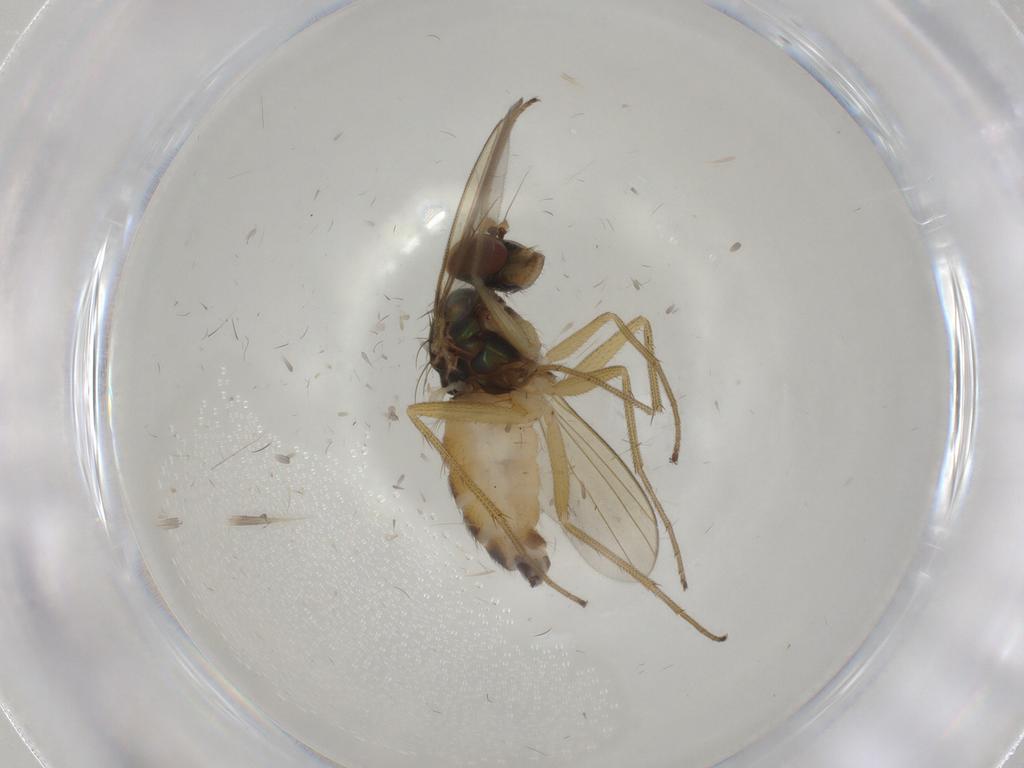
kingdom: Animalia
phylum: Arthropoda
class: Insecta
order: Diptera
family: Dolichopodidae
